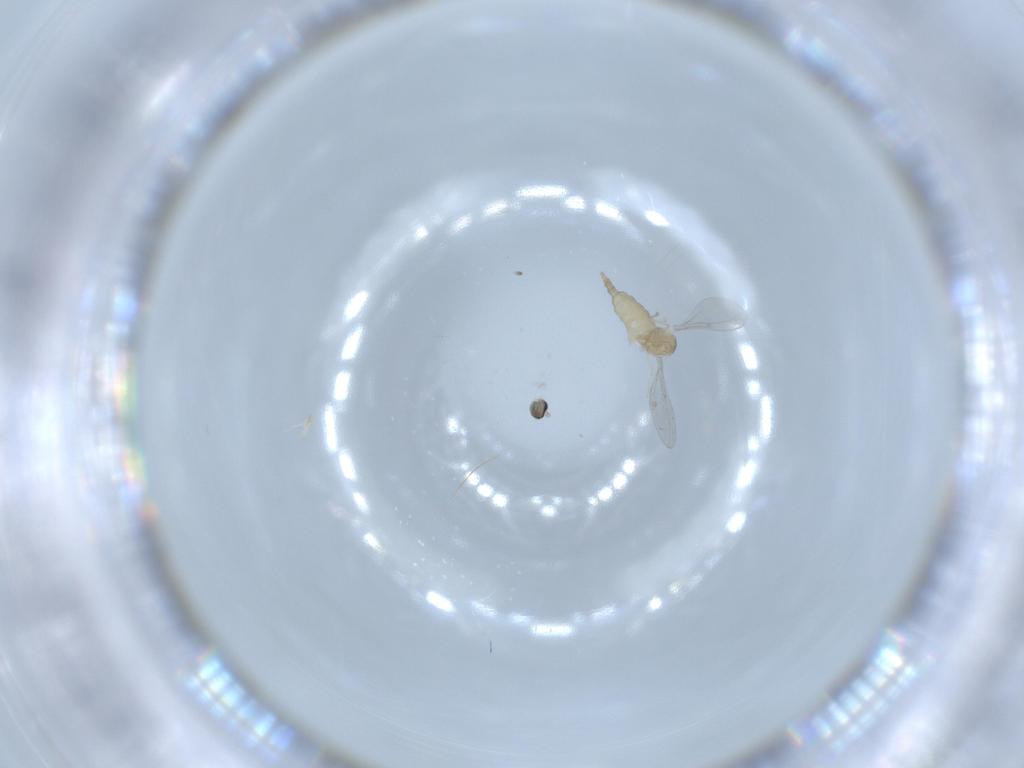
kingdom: Animalia
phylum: Arthropoda
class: Insecta
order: Diptera
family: Cecidomyiidae
